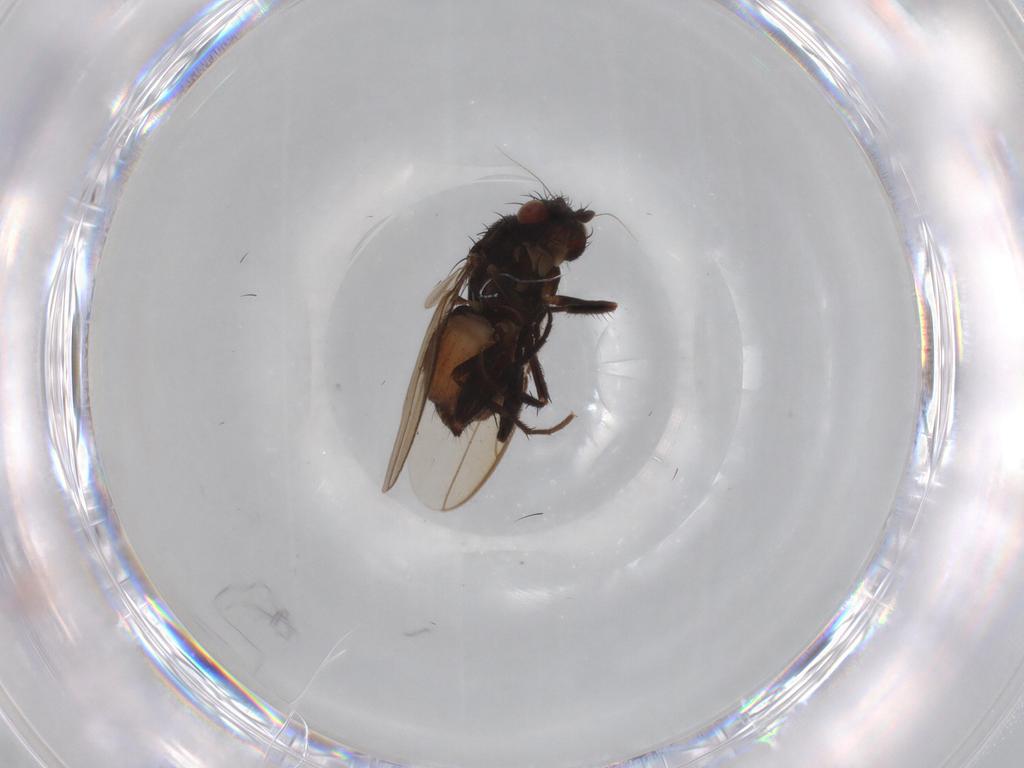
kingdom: Animalia
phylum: Arthropoda
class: Insecta
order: Diptera
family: Sphaeroceridae
